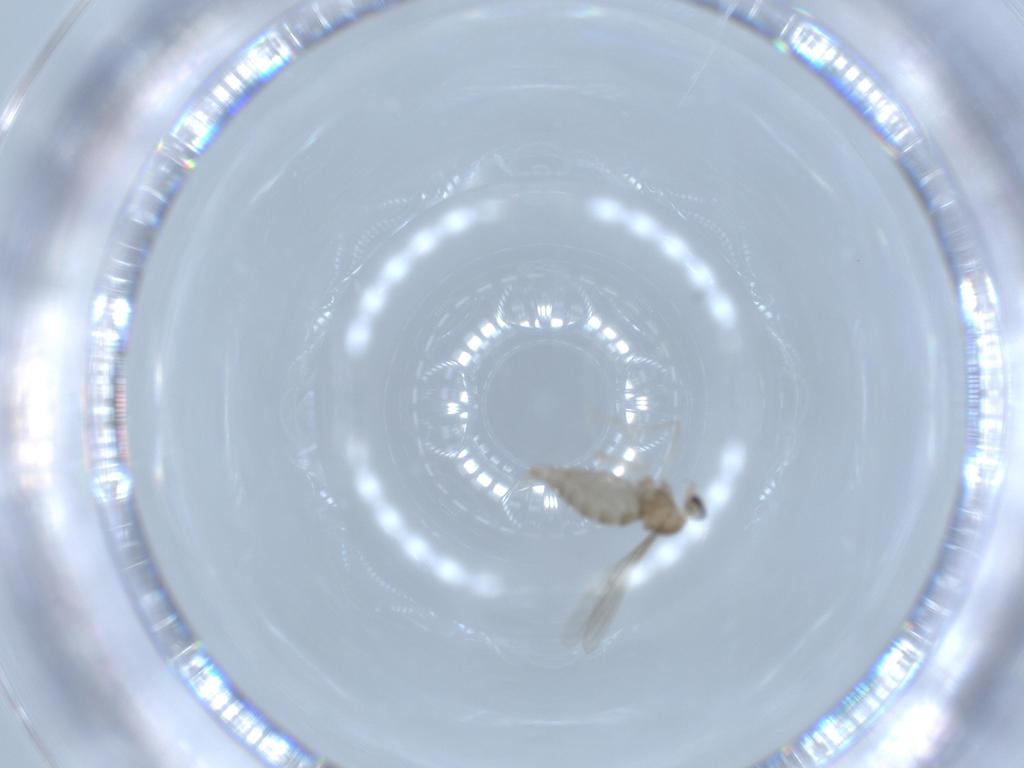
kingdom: Animalia
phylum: Arthropoda
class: Insecta
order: Diptera
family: Cecidomyiidae
